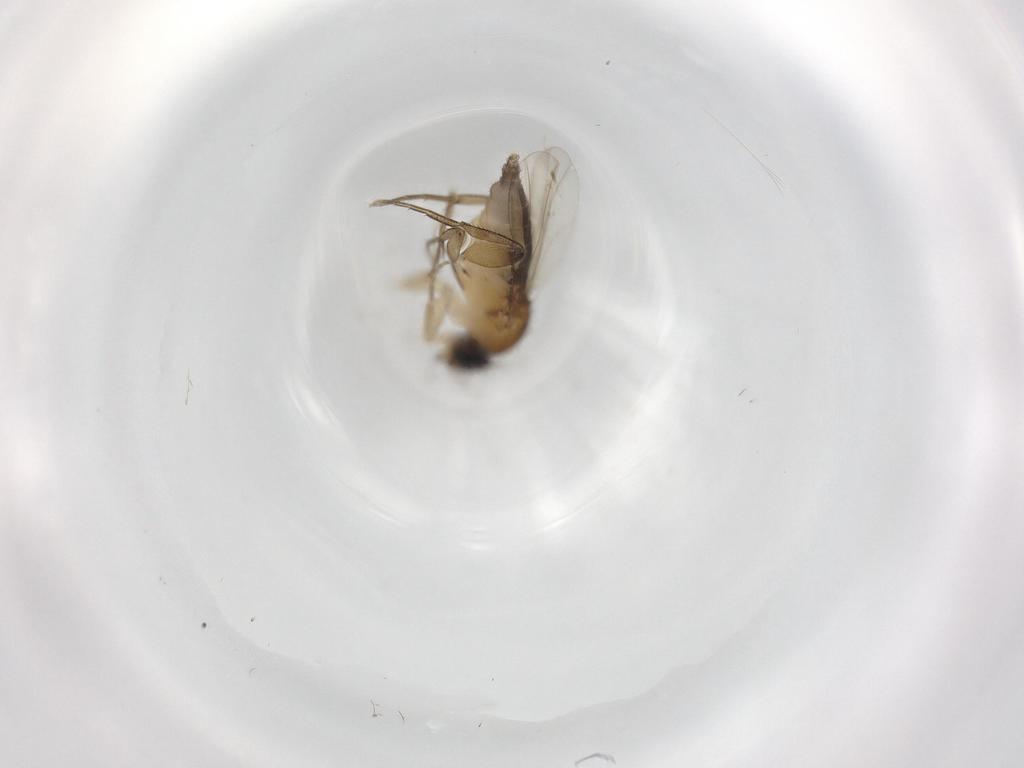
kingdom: Animalia
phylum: Arthropoda
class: Insecta
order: Diptera
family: Phoridae
